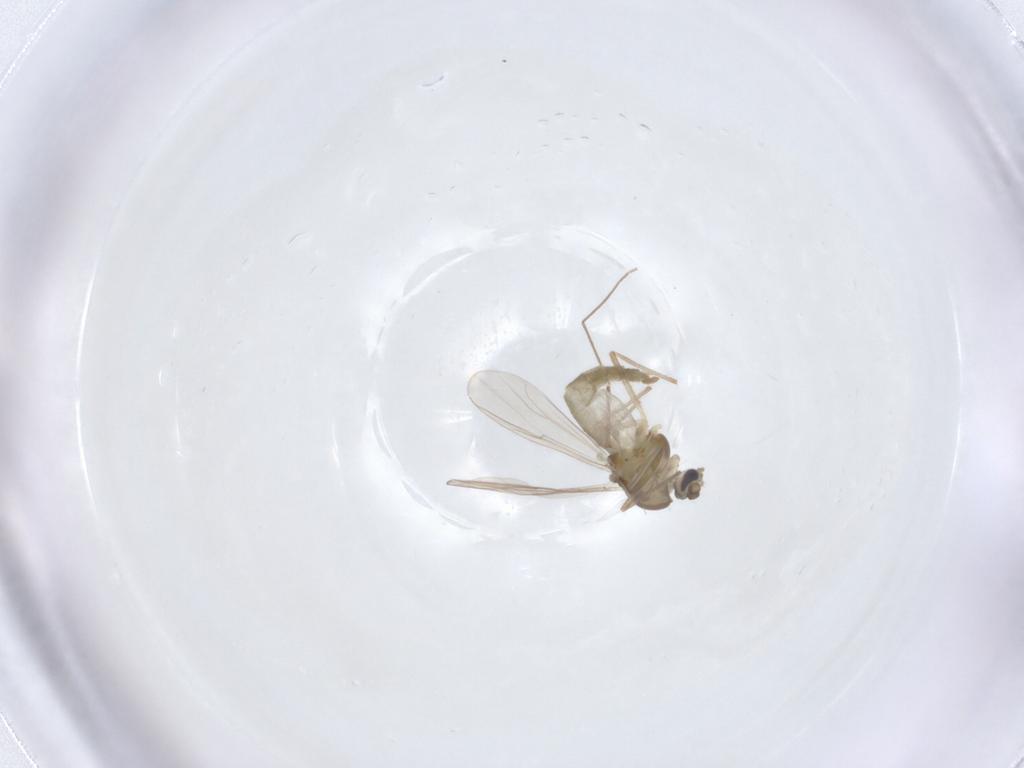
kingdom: Animalia
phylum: Arthropoda
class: Insecta
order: Diptera
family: Chironomidae
